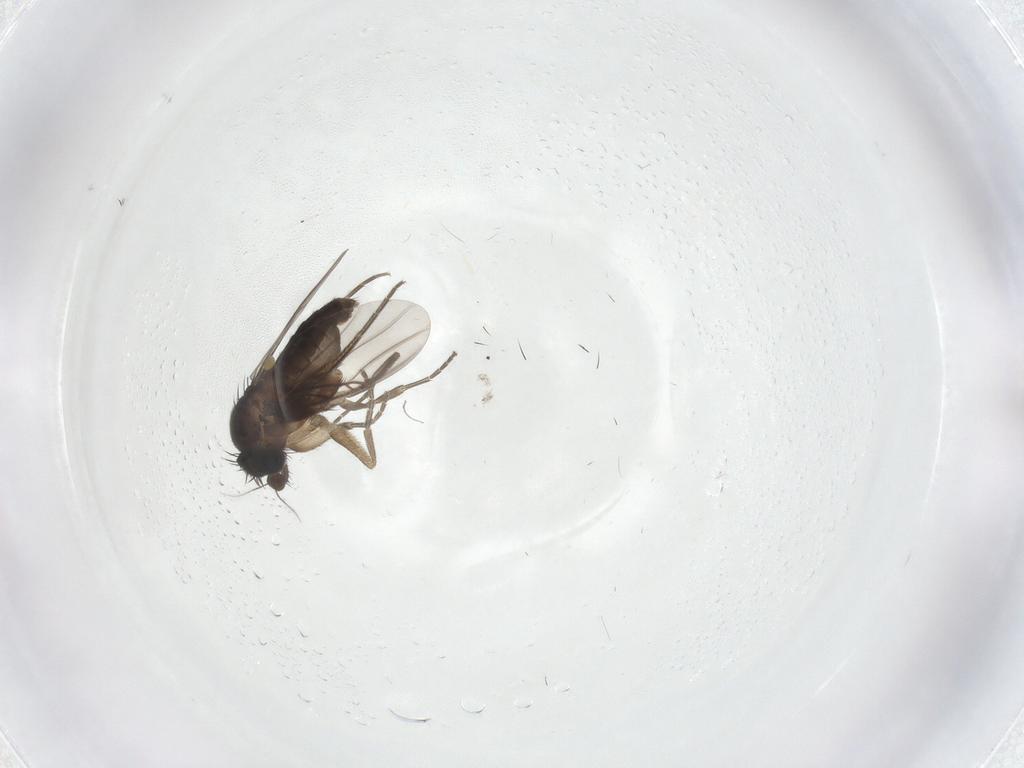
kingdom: Animalia
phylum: Arthropoda
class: Insecta
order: Diptera
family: Phoridae
